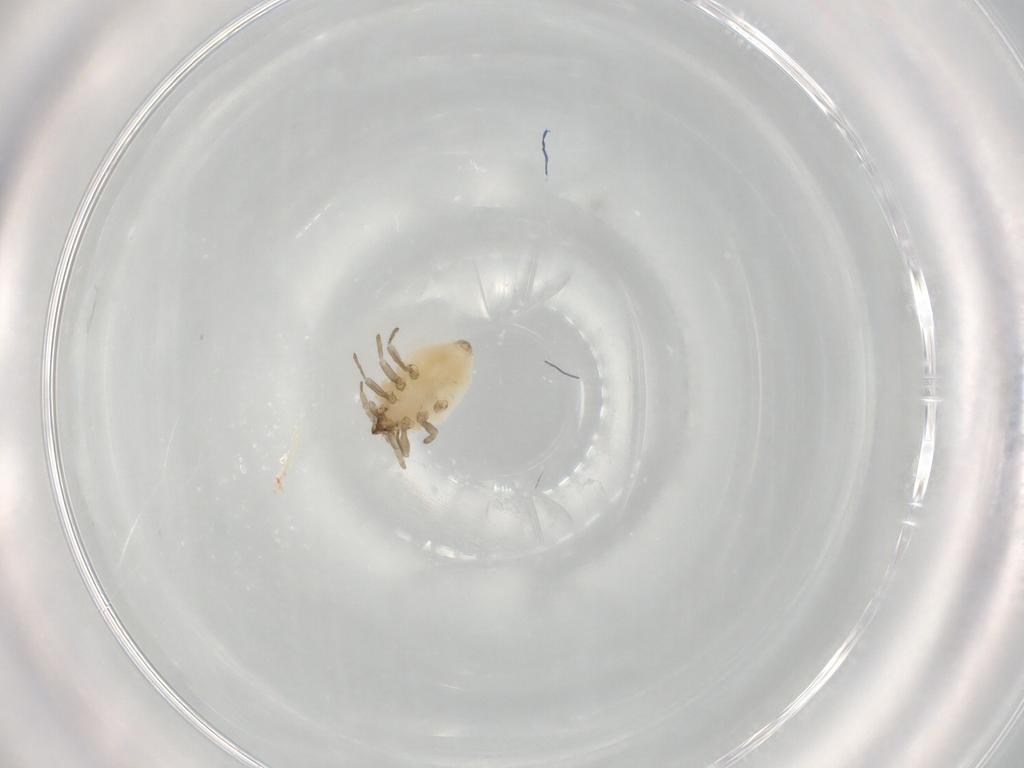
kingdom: Animalia
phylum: Arthropoda
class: Insecta
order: Neuroptera
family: Coniopterygidae
